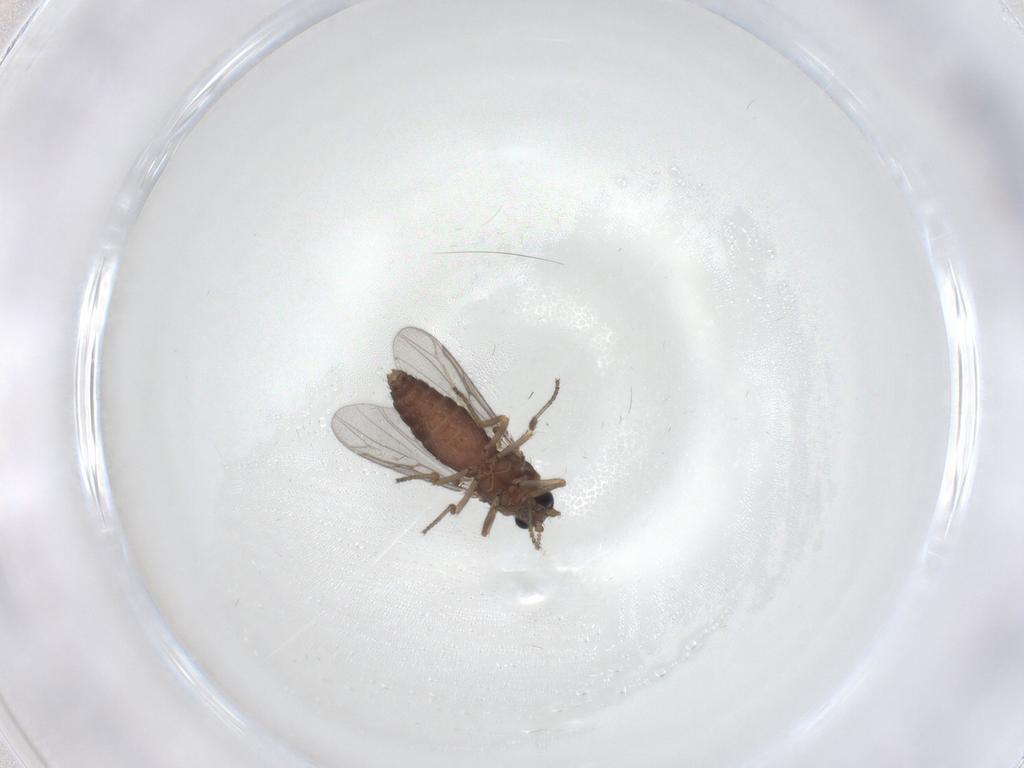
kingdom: Animalia
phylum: Arthropoda
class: Insecta
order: Diptera
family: Ceratopogonidae
